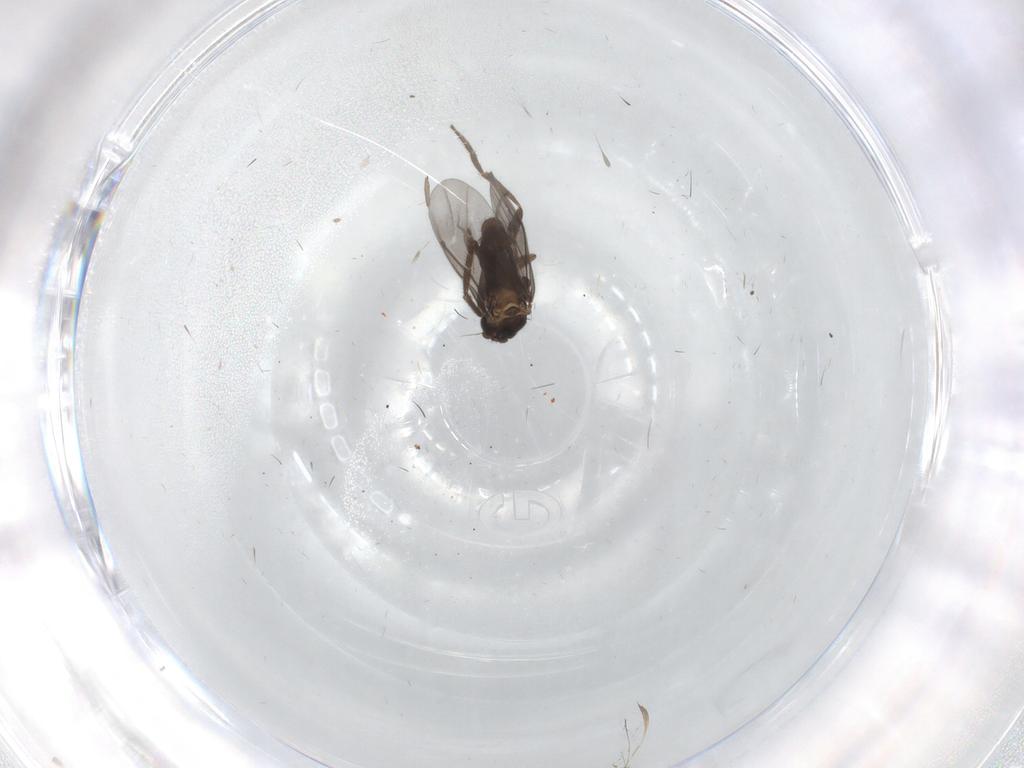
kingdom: Animalia
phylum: Arthropoda
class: Insecta
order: Diptera
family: Phoridae
